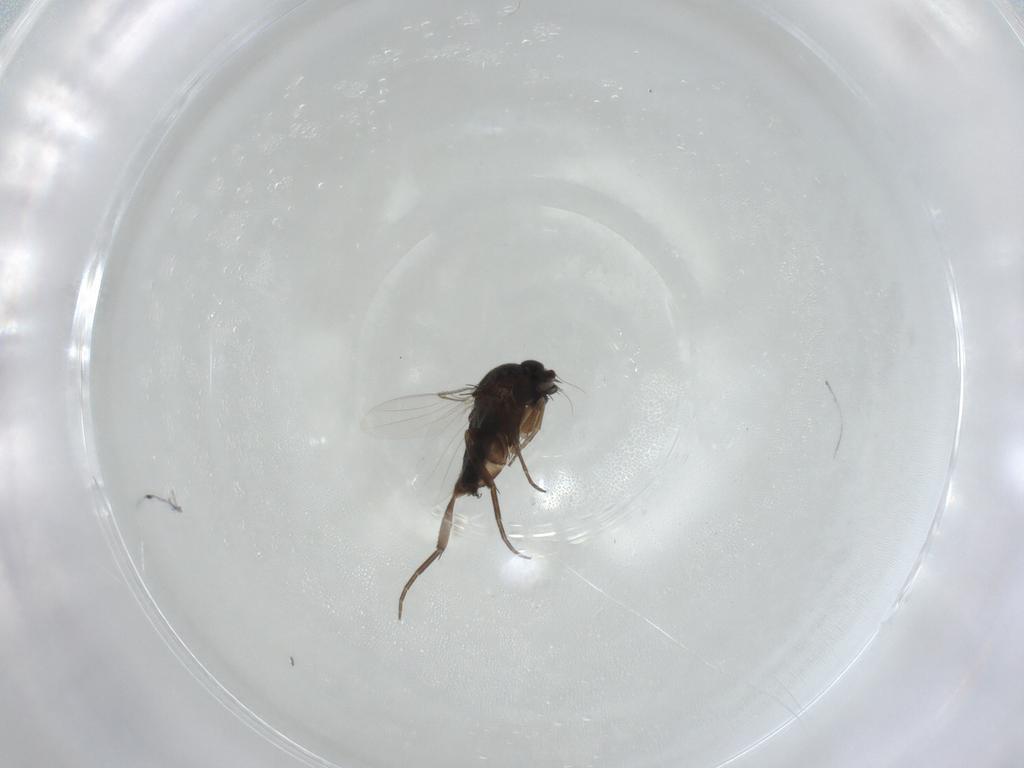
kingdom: Animalia
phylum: Arthropoda
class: Insecta
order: Diptera
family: Phoridae
